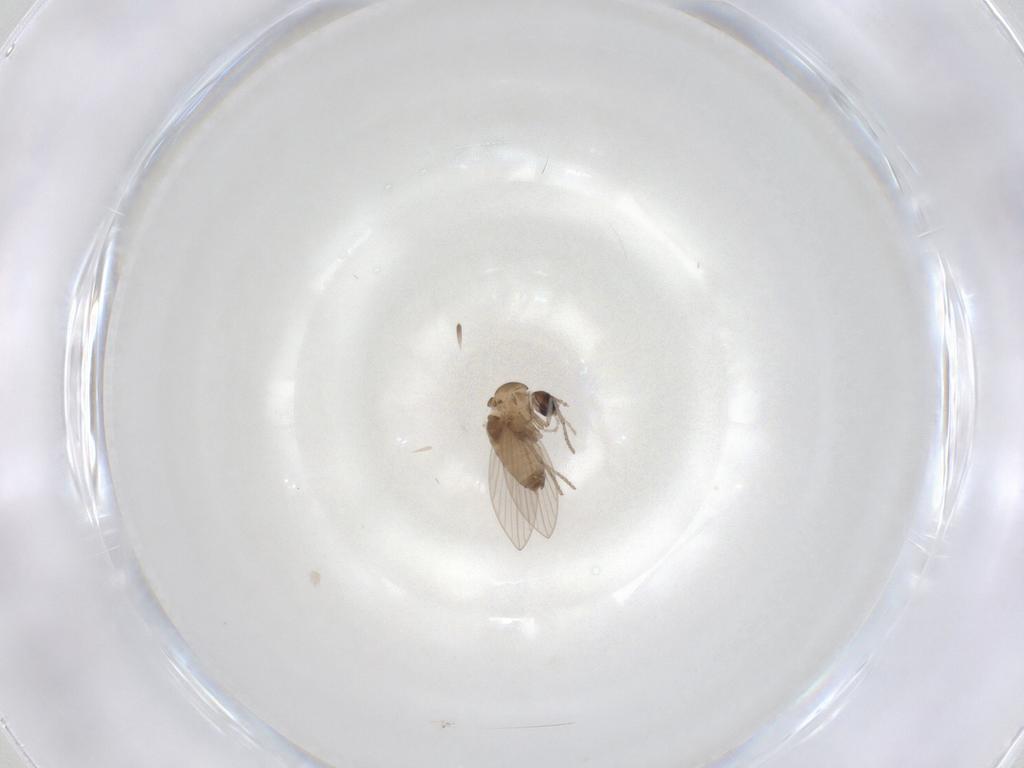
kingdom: Animalia
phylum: Arthropoda
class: Insecta
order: Diptera
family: Psychodidae
